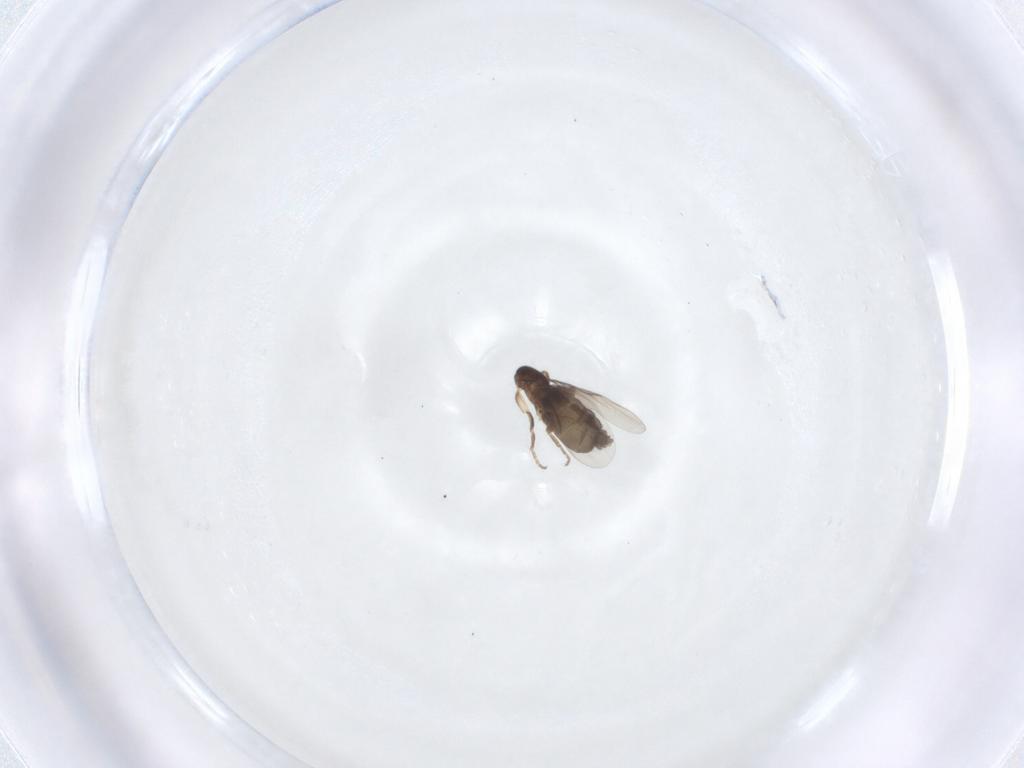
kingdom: Animalia
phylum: Arthropoda
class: Insecta
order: Diptera
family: Phoridae
